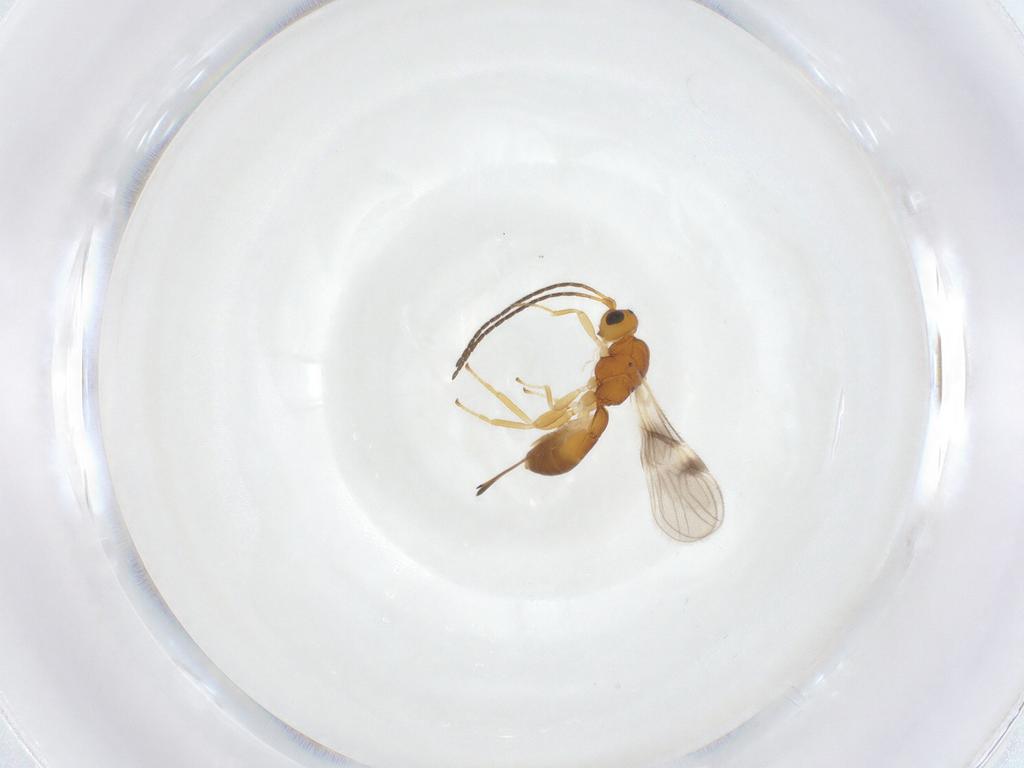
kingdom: Animalia
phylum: Arthropoda
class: Insecta
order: Hymenoptera
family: Braconidae
